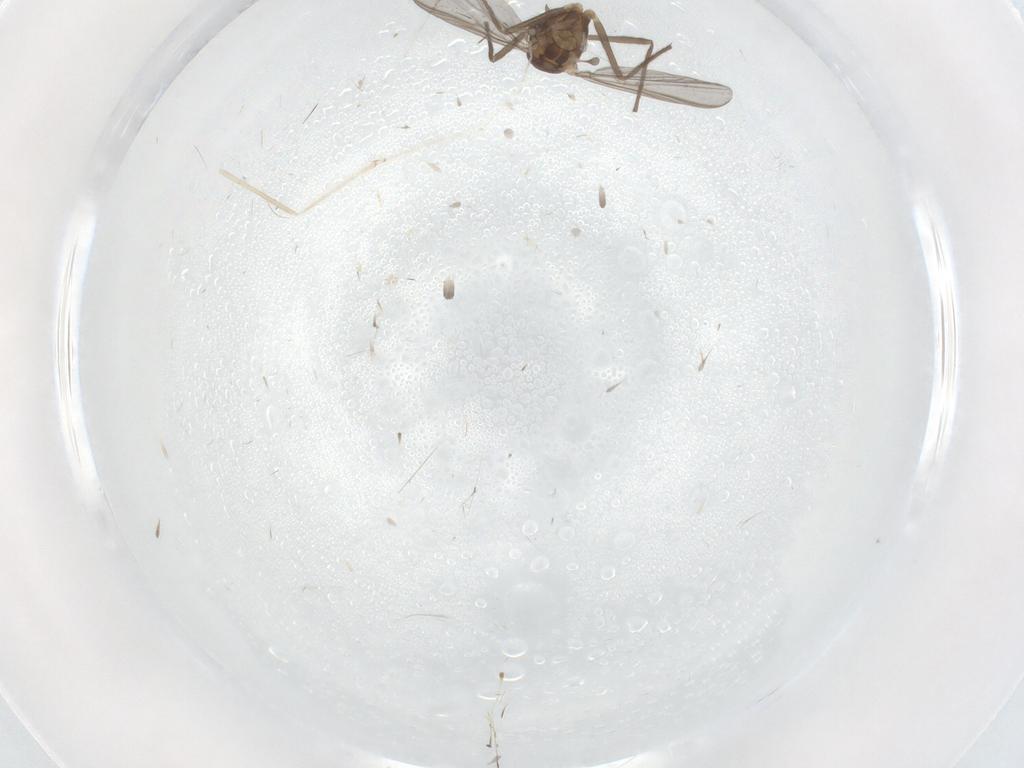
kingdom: Animalia
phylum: Arthropoda
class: Insecta
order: Diptera
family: Chironomidae
